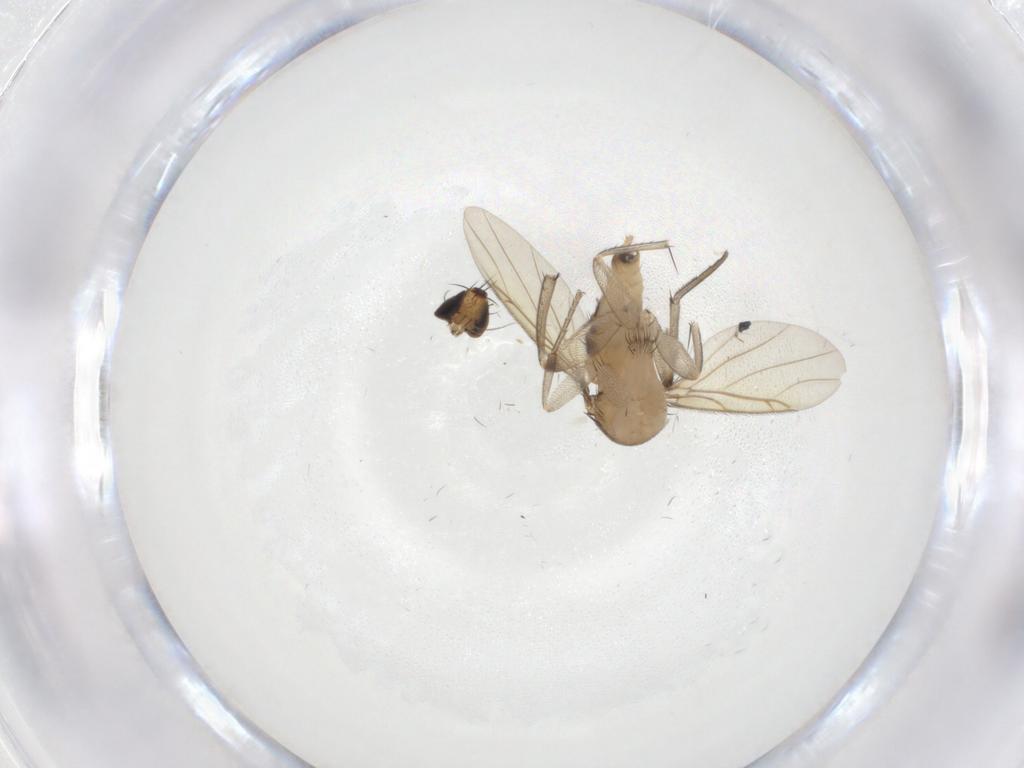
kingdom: Animalia
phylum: Arthropoda
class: Insecta
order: Diptera
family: Phoridae
